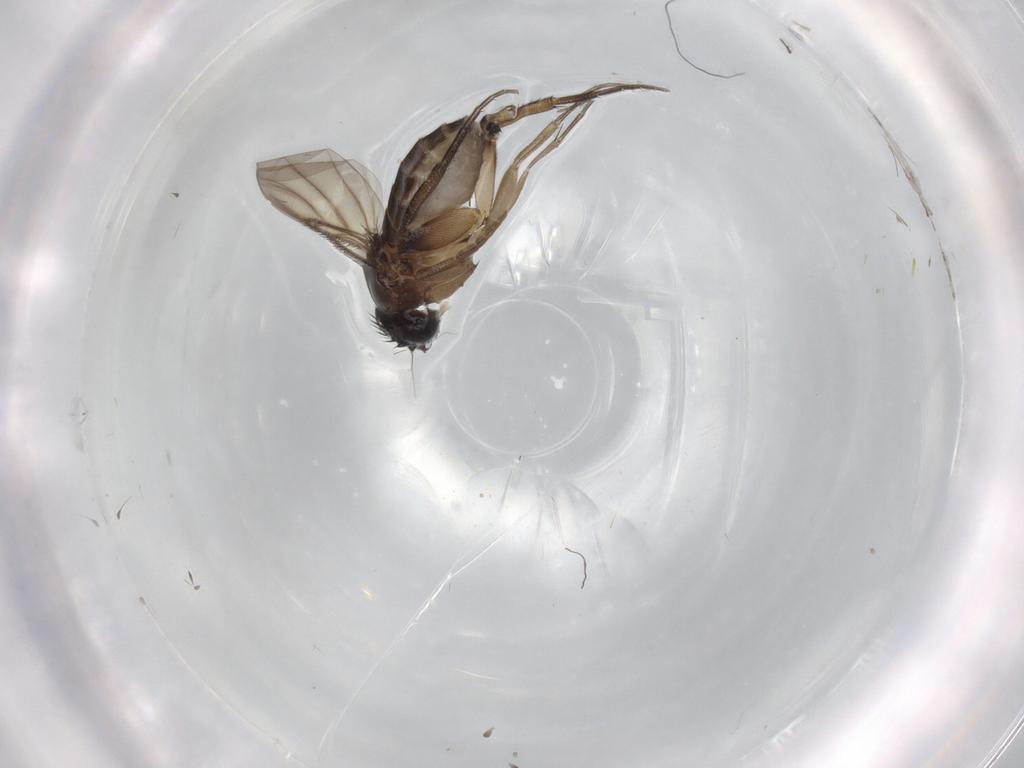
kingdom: Animalia
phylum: Arthropoda
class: Insecta
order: Diptera
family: Phoridae
